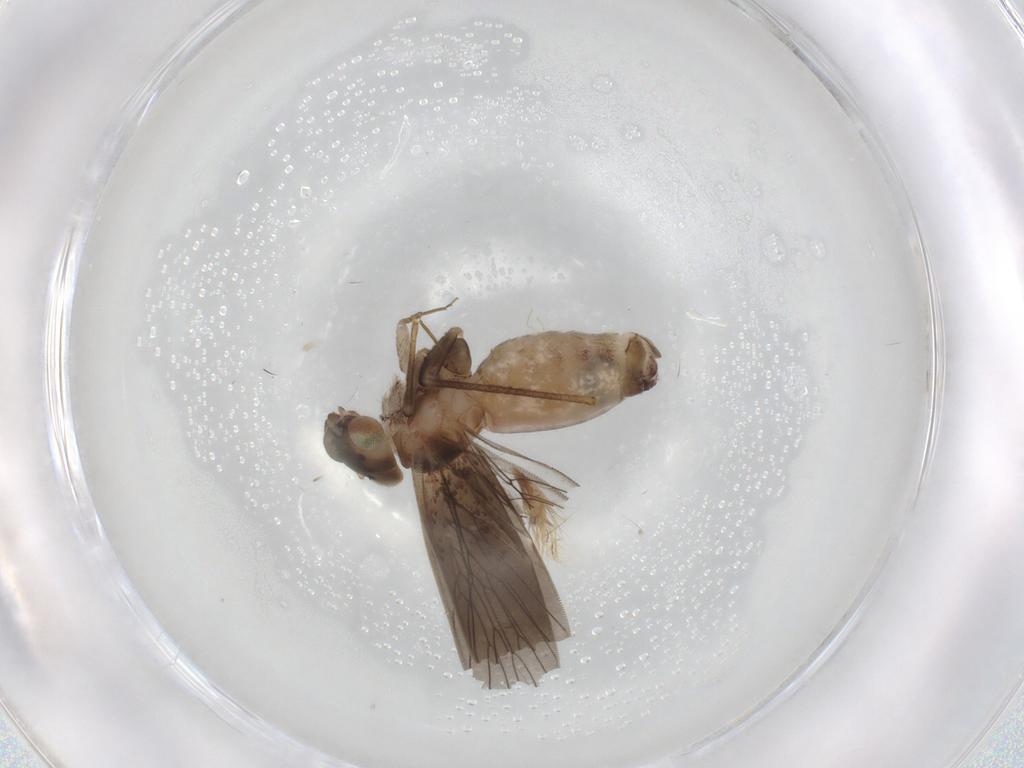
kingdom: Animalia
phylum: Arthropoda
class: Insecta
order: Psocodea
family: Lepidopsocidae
